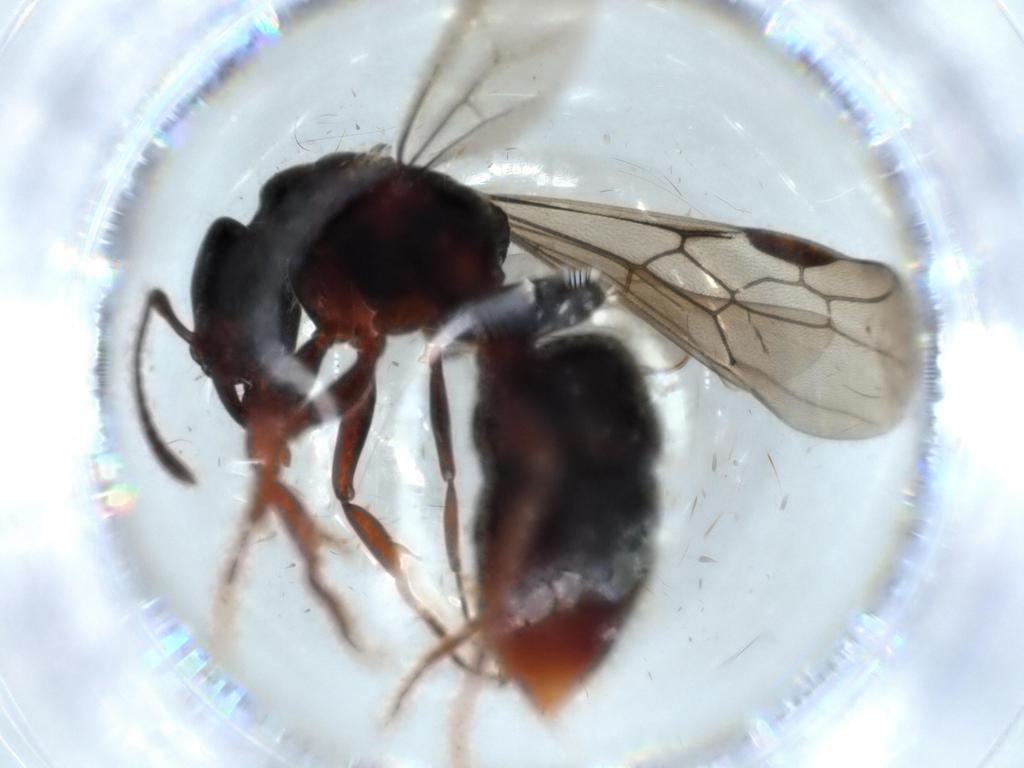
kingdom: Animalia
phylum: Arthropoda
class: Insecta
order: Hymenoptera
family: Formicidae
